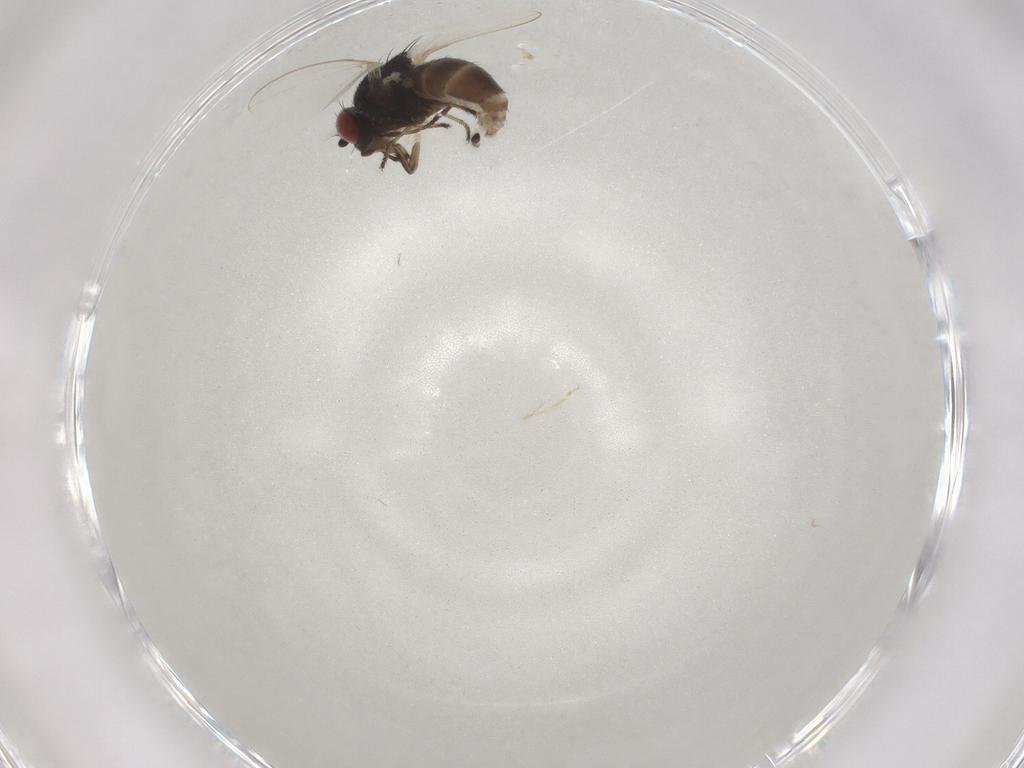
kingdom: Animalia
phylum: Arthropoda
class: Insecta
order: Diptera
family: Ephydridae
